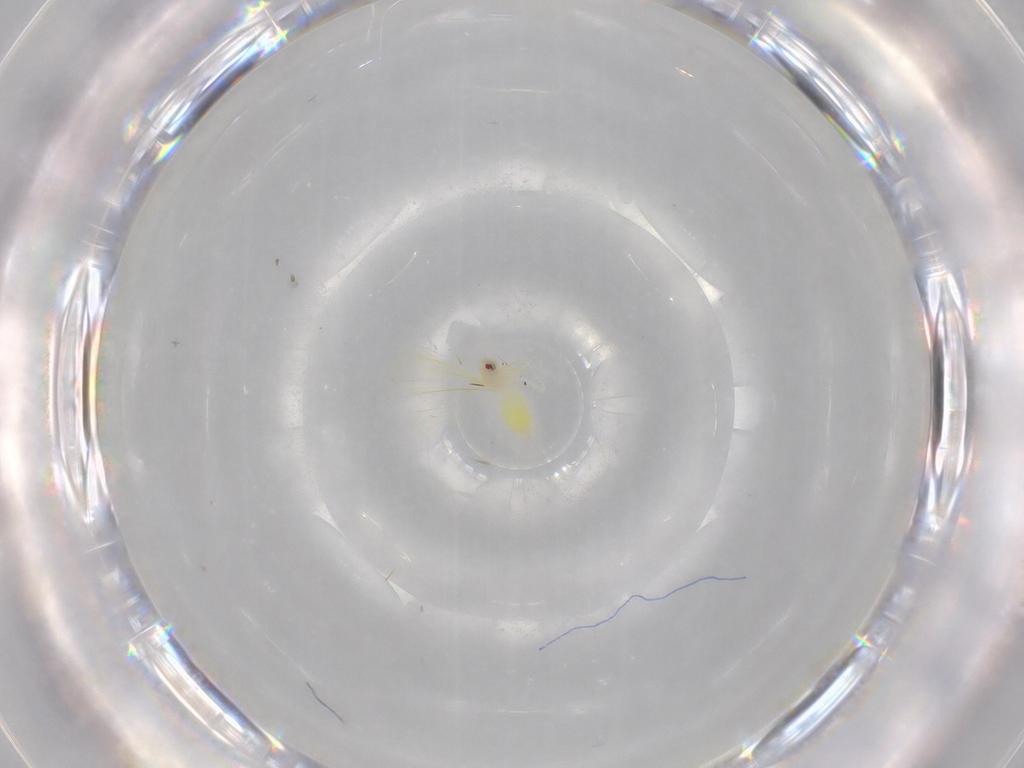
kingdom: Animalia
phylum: Arthropoda
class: Insecta
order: Hemiptera
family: Aleyrodidae
